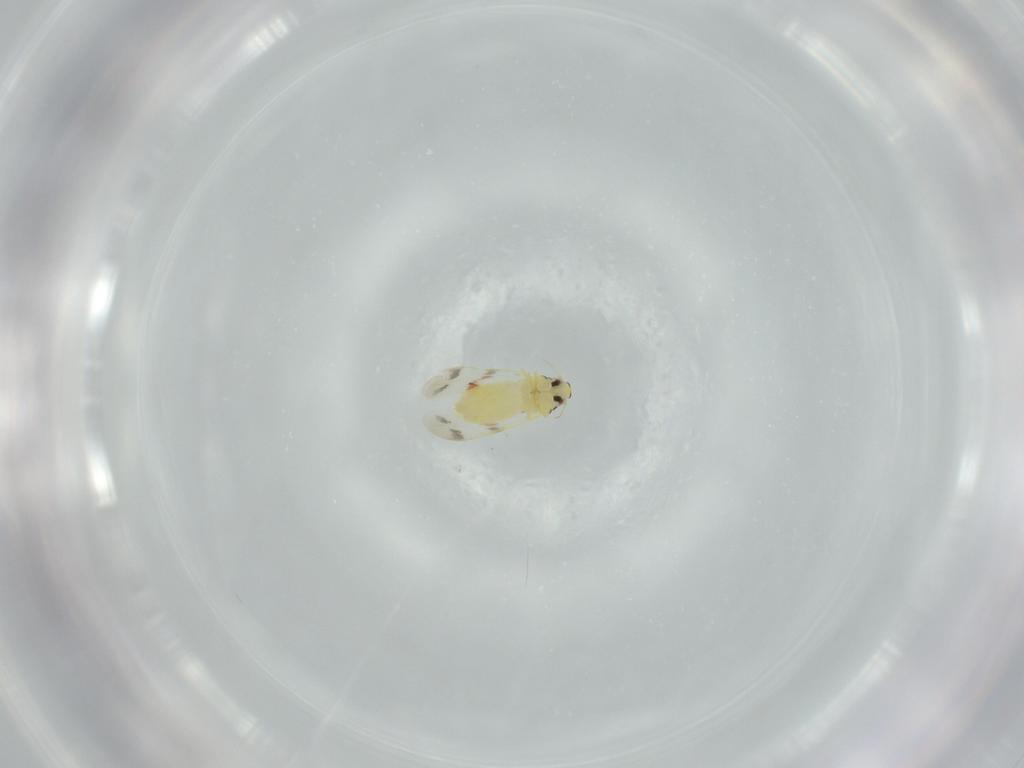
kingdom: Animalia
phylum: Arthropoda
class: Insecta
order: Hemiptera
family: Aleyrodidae
